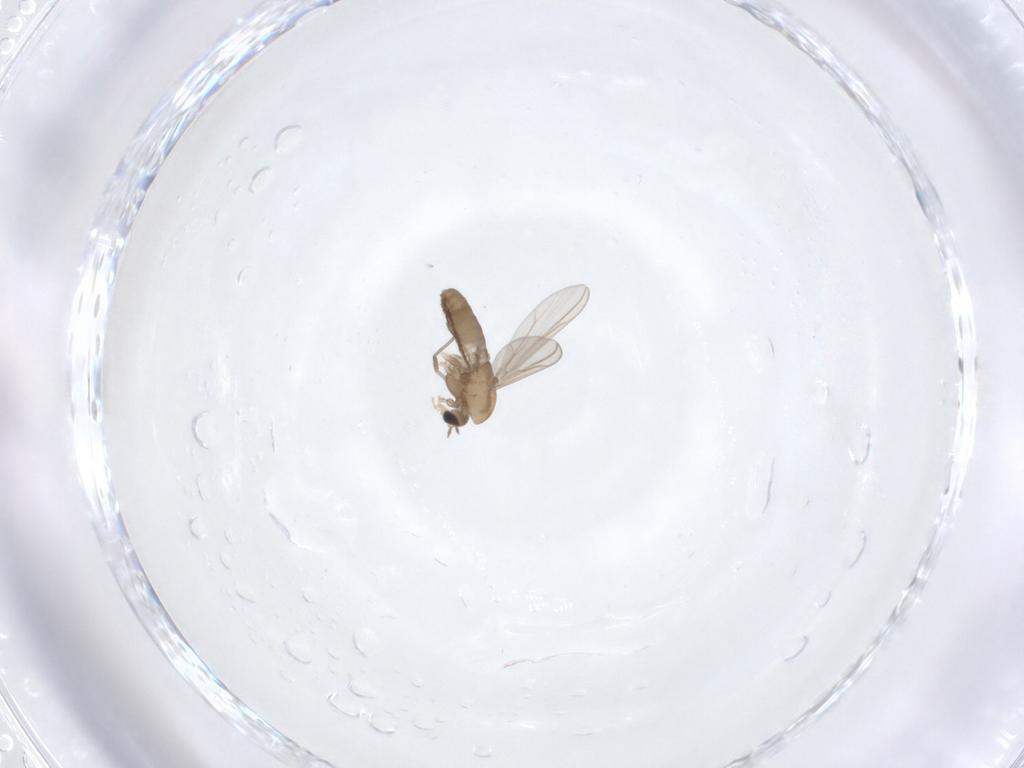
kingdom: Animalia
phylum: Arthropoda
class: Insecta
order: Diptera
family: Chironomidae
